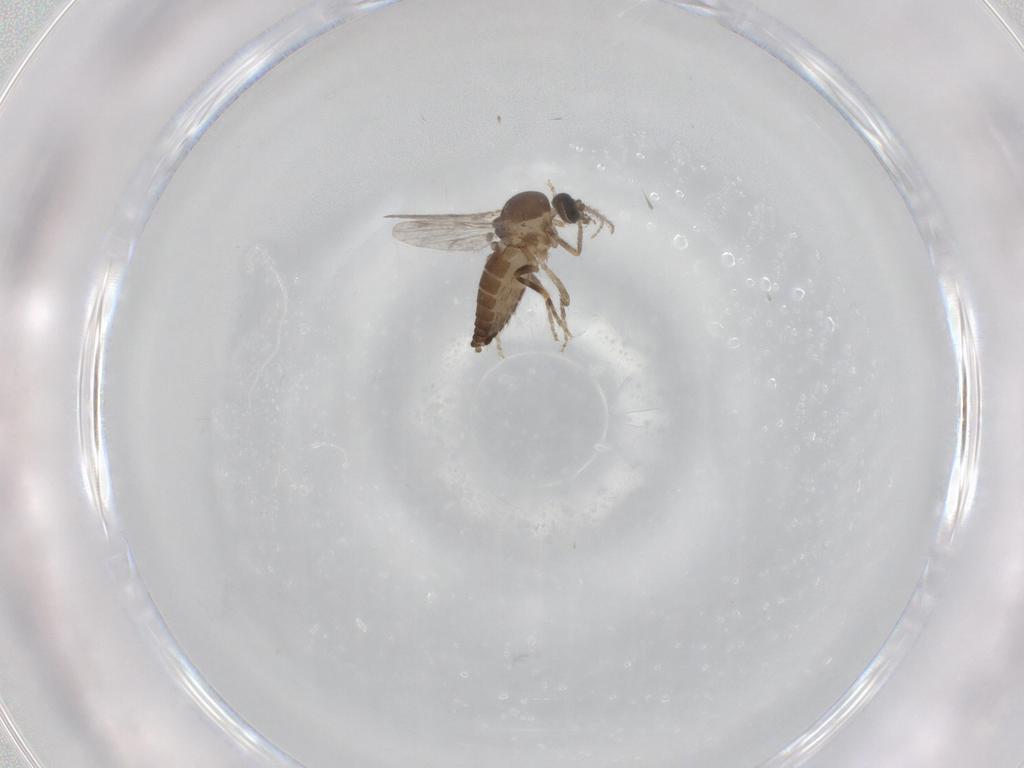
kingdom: Animalia
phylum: Arthropoda
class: Insecta
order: Diptera
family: Ceratopogonidae
